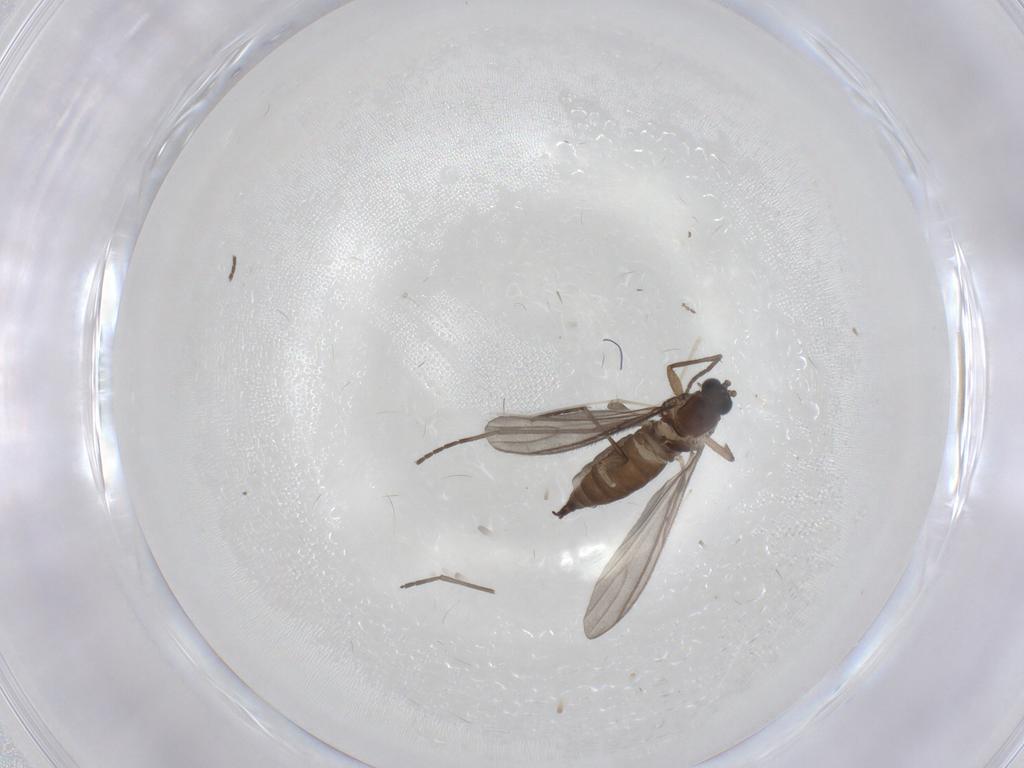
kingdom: Animalia
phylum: Arthropoda
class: Insecta
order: Diptera
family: Sciaridae
